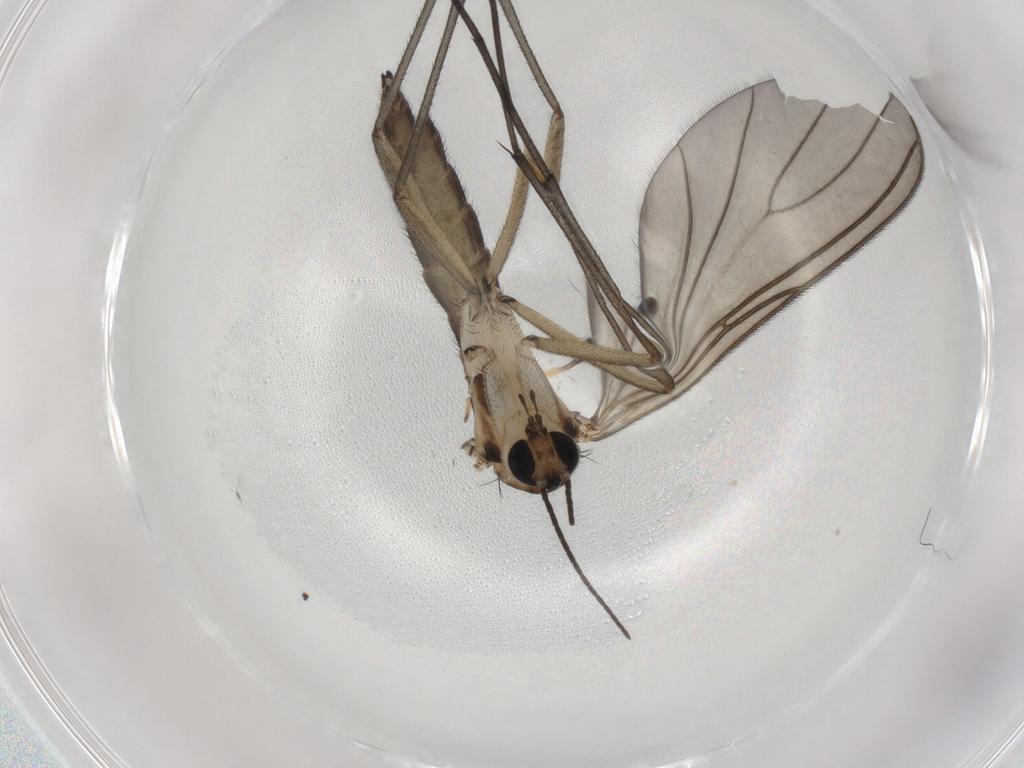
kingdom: Animalia
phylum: Arthropoda
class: Insecta
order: Diptera
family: Sciaridae
